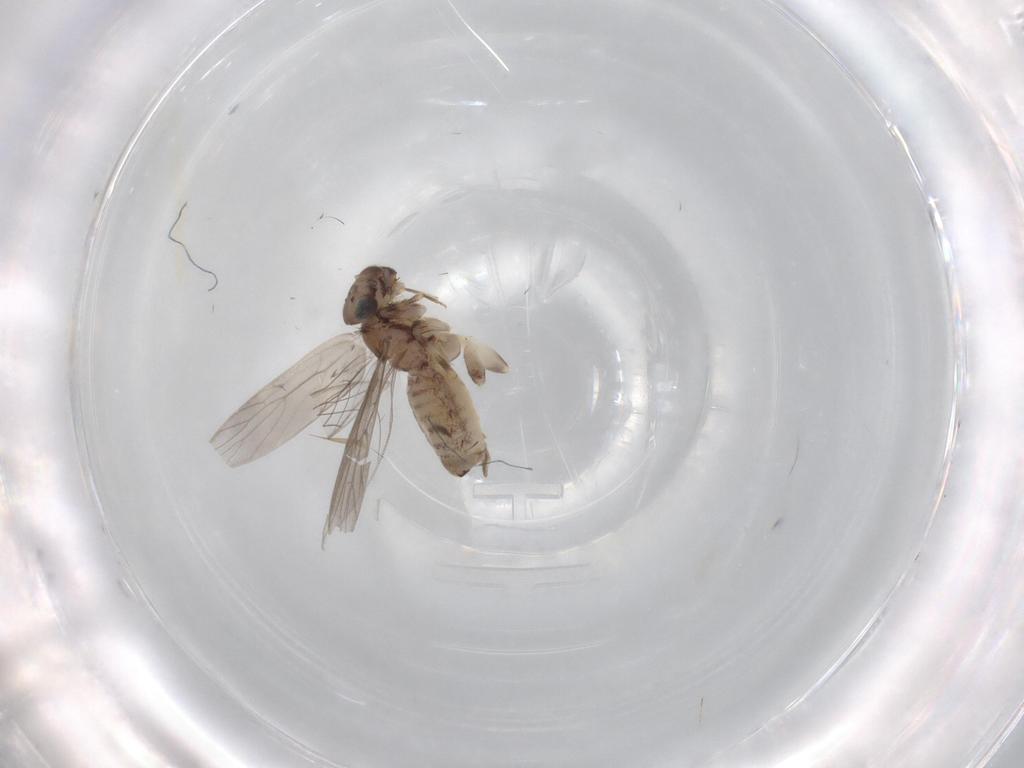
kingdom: Animalia
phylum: Arthropoda
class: Insecta
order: Psocodea
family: Lepidopsocidae
